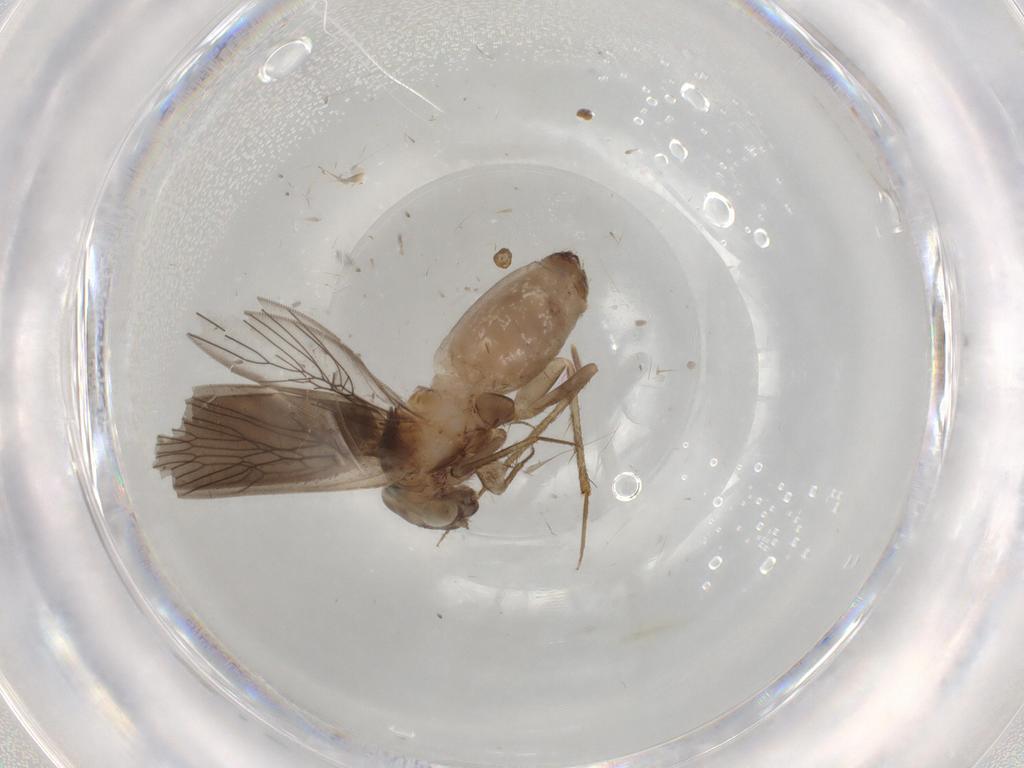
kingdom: Animalia
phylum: Arthropoda
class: Insecta
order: Psocodea
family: Lepidopsocidae
